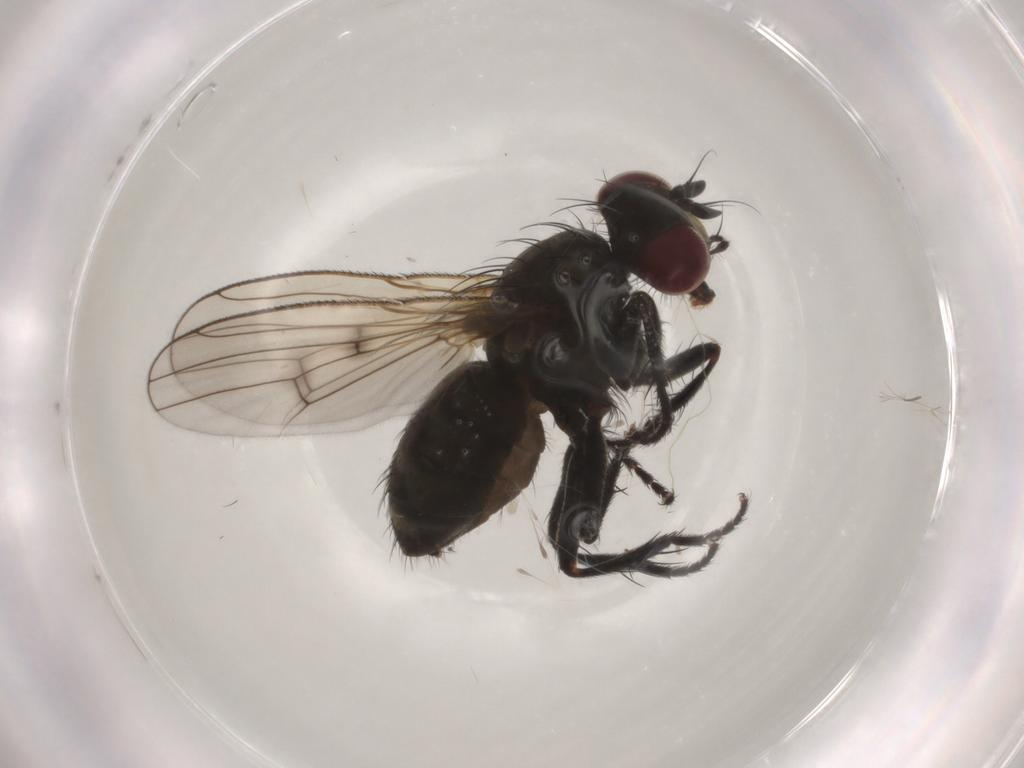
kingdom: Animalia
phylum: Arthropoda
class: Insecta
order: Diptera
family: Muscidae
